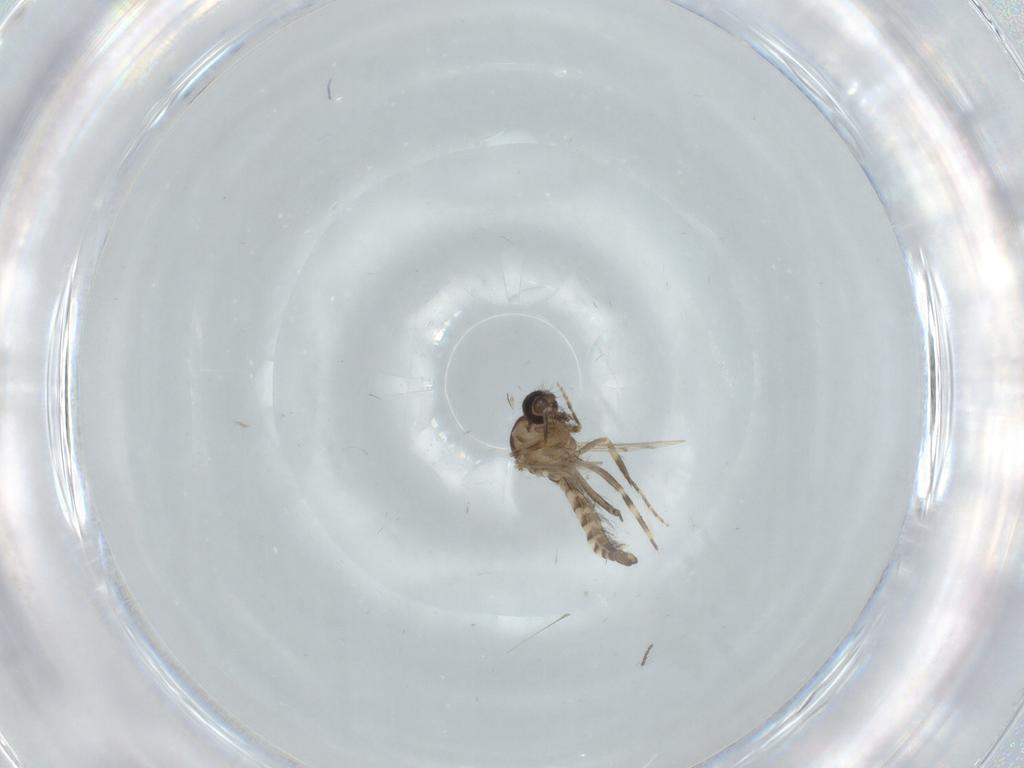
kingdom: Animalia
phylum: Arthropoda
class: Insecta
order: Diptera
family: Ceratopogonidae
